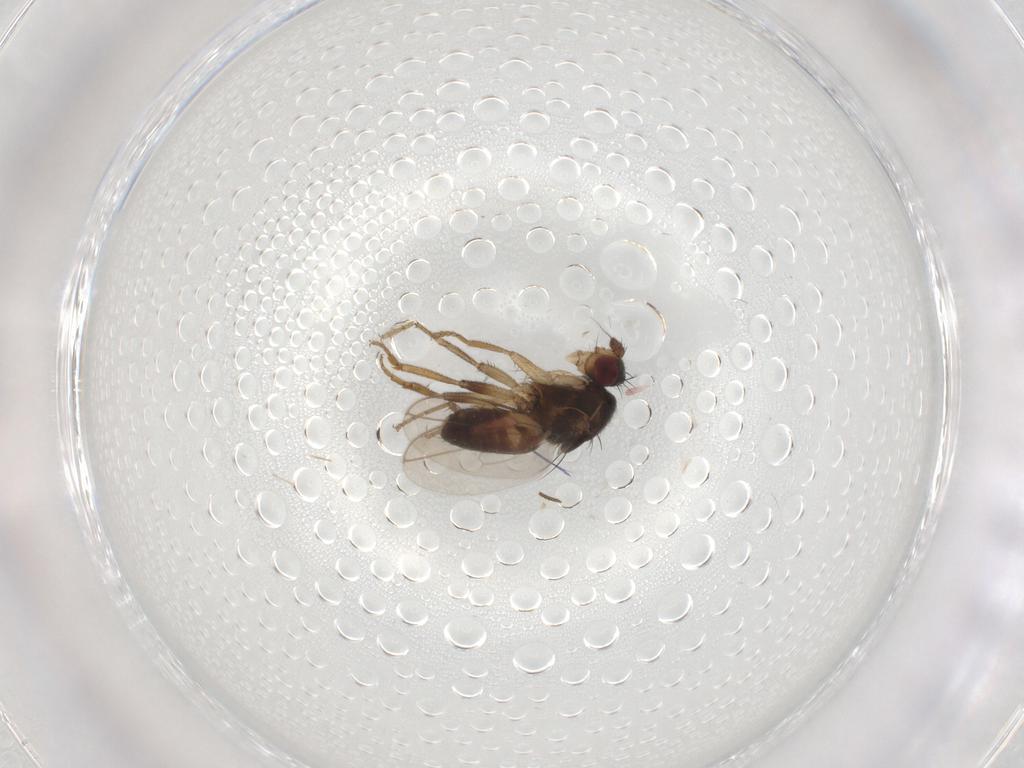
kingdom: Animalia
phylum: Arthropoda
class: Insecta
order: Diptera
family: Sphaeroceridae
